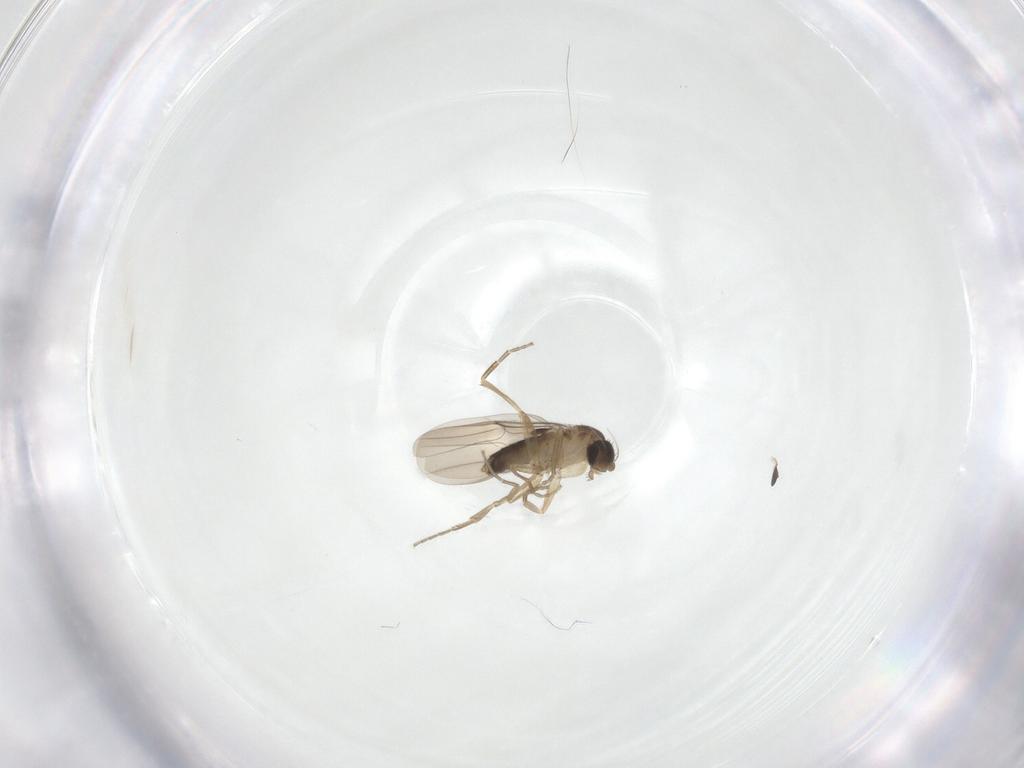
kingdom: Animalia
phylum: Arthropoda
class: Insecta
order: Diptera
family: Phoridae
